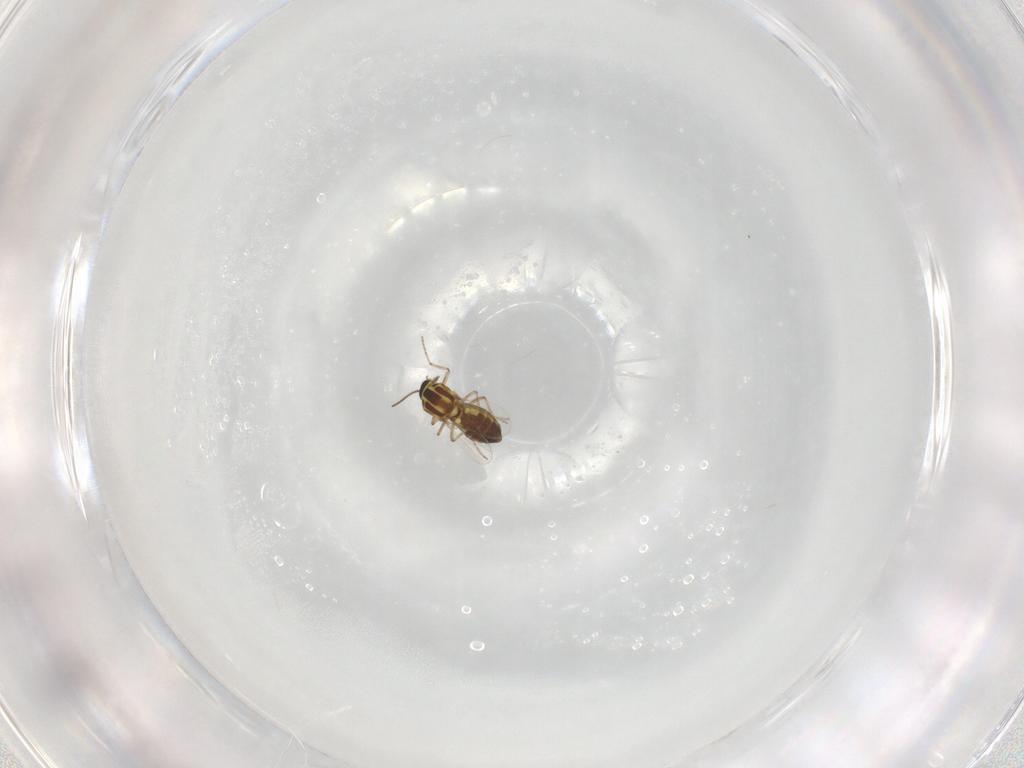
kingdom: Animalia
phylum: Arthropoda
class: Insecta
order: Diptera
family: Ceratopogonidae
